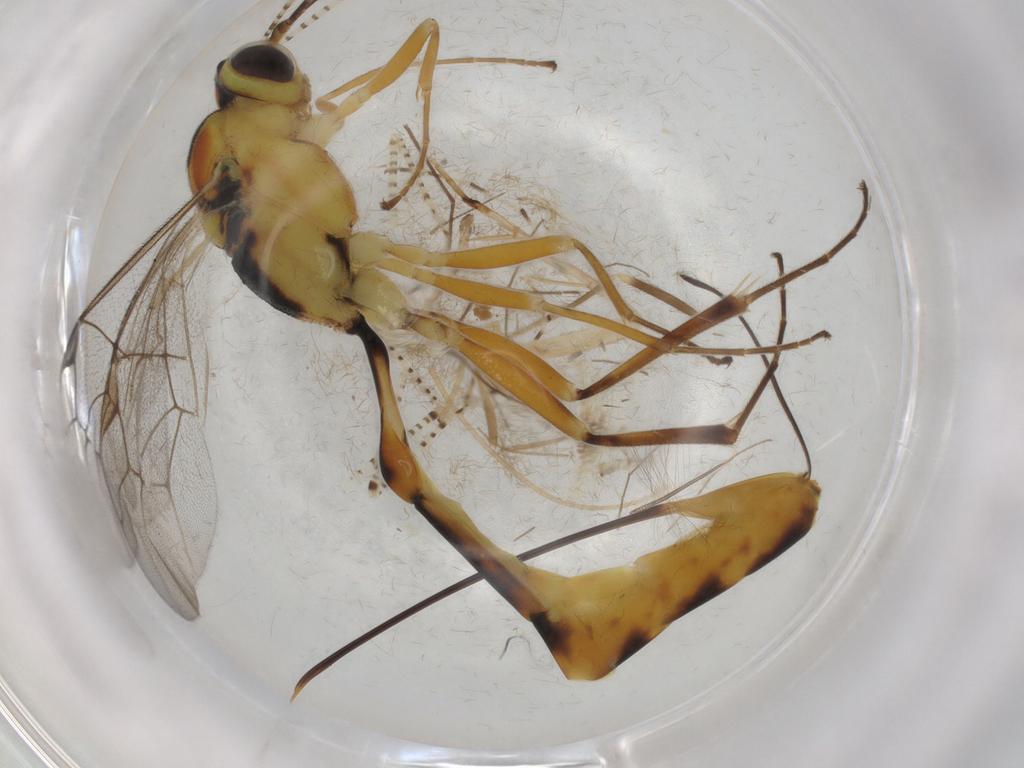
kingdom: Animalia
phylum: Arthropoda
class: Insecta
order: Hymenoptera
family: Ichneumonidae
